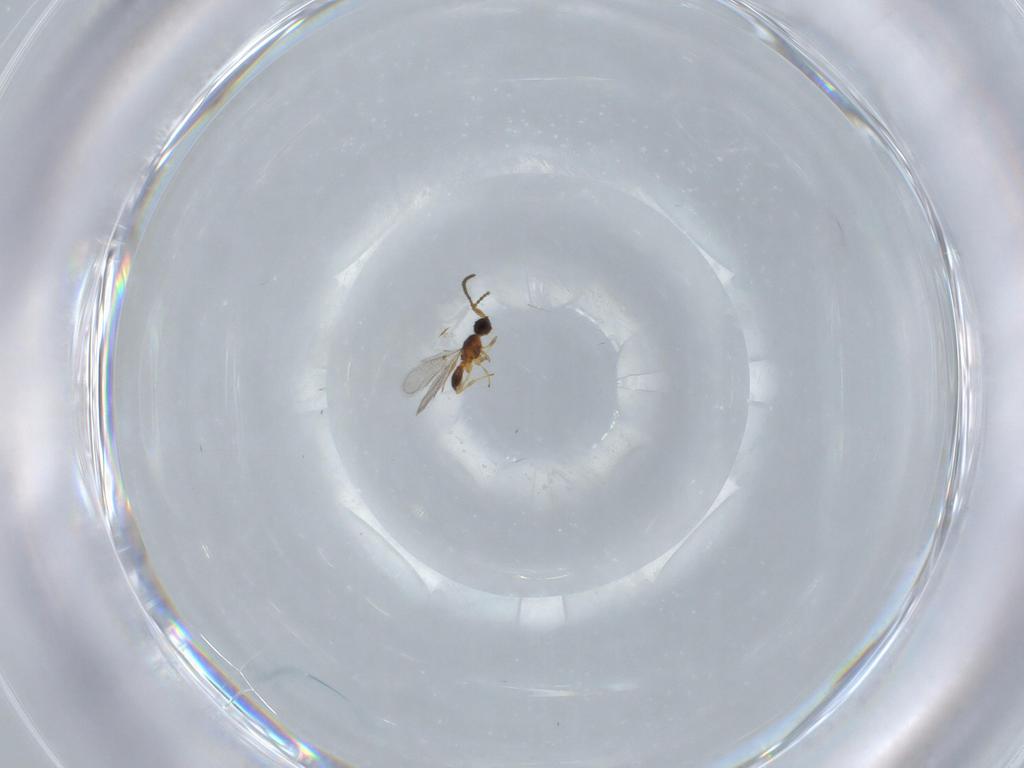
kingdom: Animalia
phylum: Arthropoda
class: Insecta
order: Hymenoptera
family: Diapriidae
